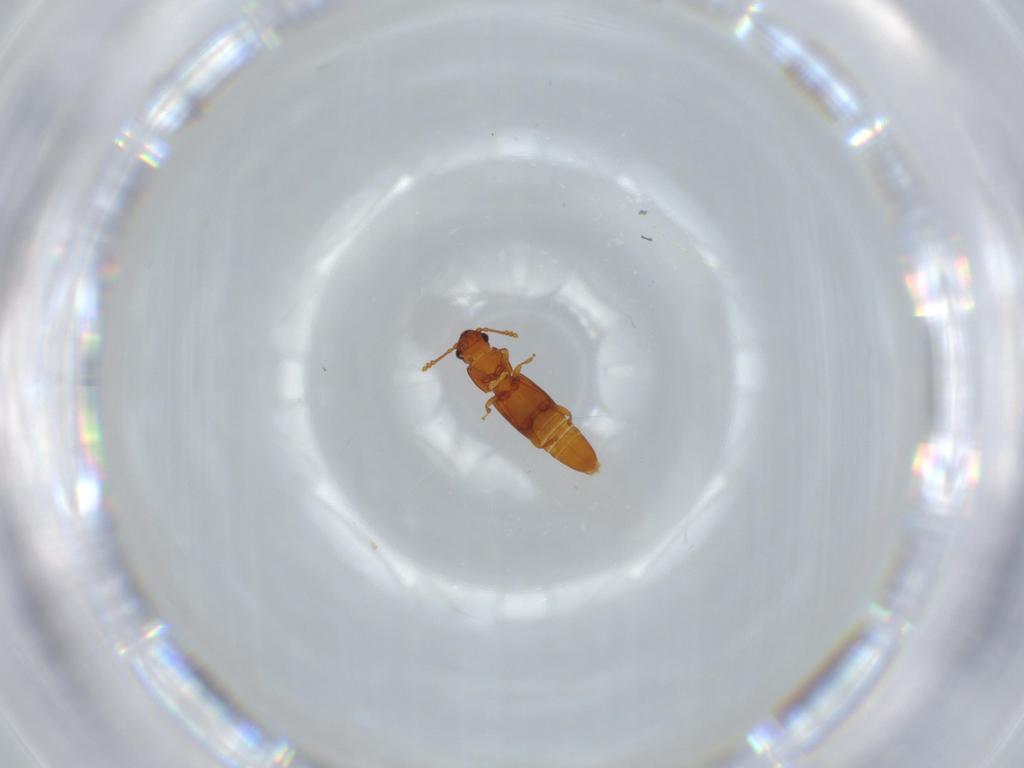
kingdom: Animalia
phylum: Arthropoda
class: Insecta
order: Coleoptera
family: Smicripidae
